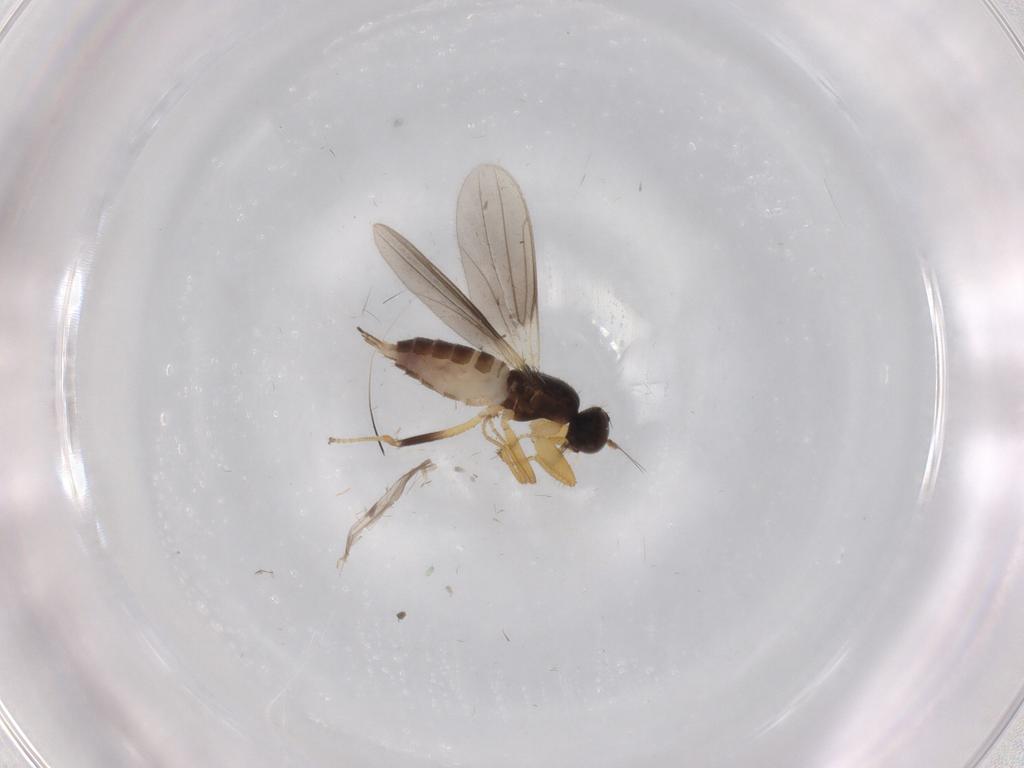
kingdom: Animalia
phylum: Arthropoda
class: Insecta
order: Diptera
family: Hybotidae
